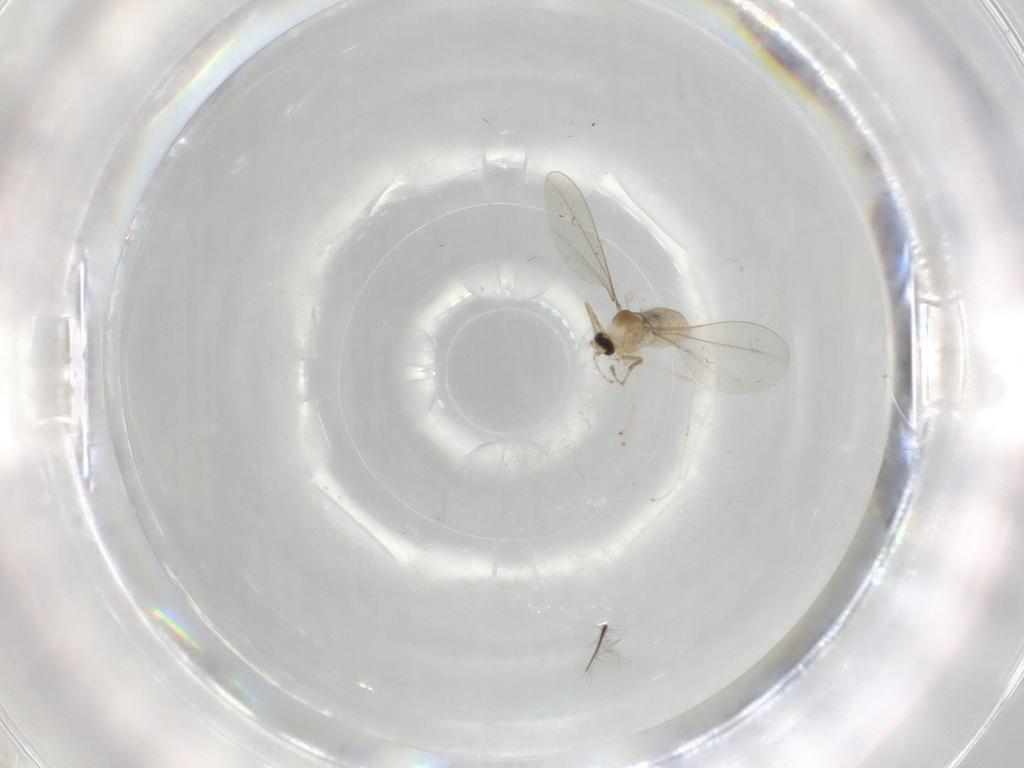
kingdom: Animalia
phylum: Arthropoda
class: Insecta
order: Diptera
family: Cecidomyiidae
